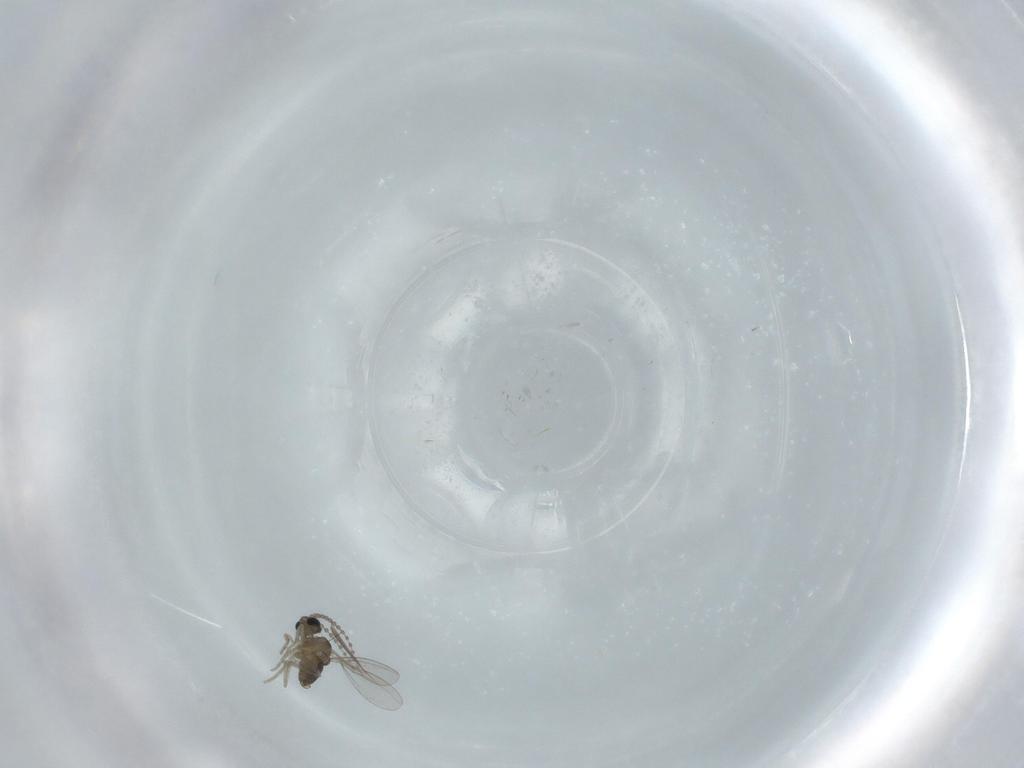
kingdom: Animalia
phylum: Arthropoda
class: Insecta
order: Diptera
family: Cecidomyiidae
